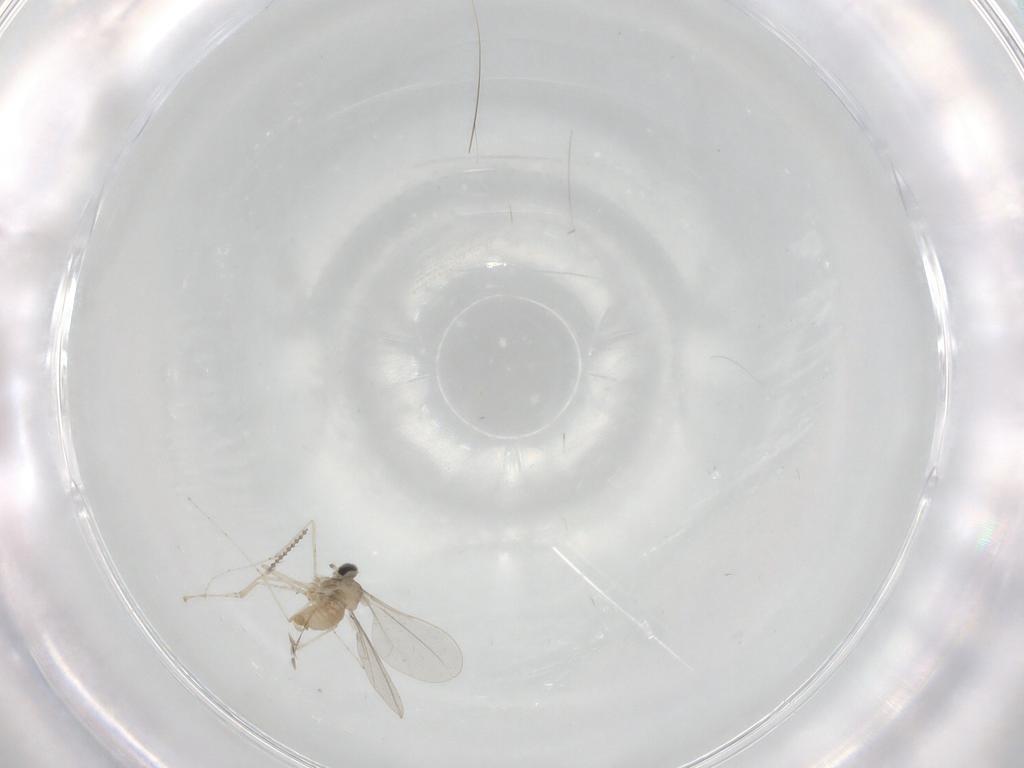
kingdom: Animalia
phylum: Arthropoda
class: Insecta
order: Diptera
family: Cecidomyiidae
